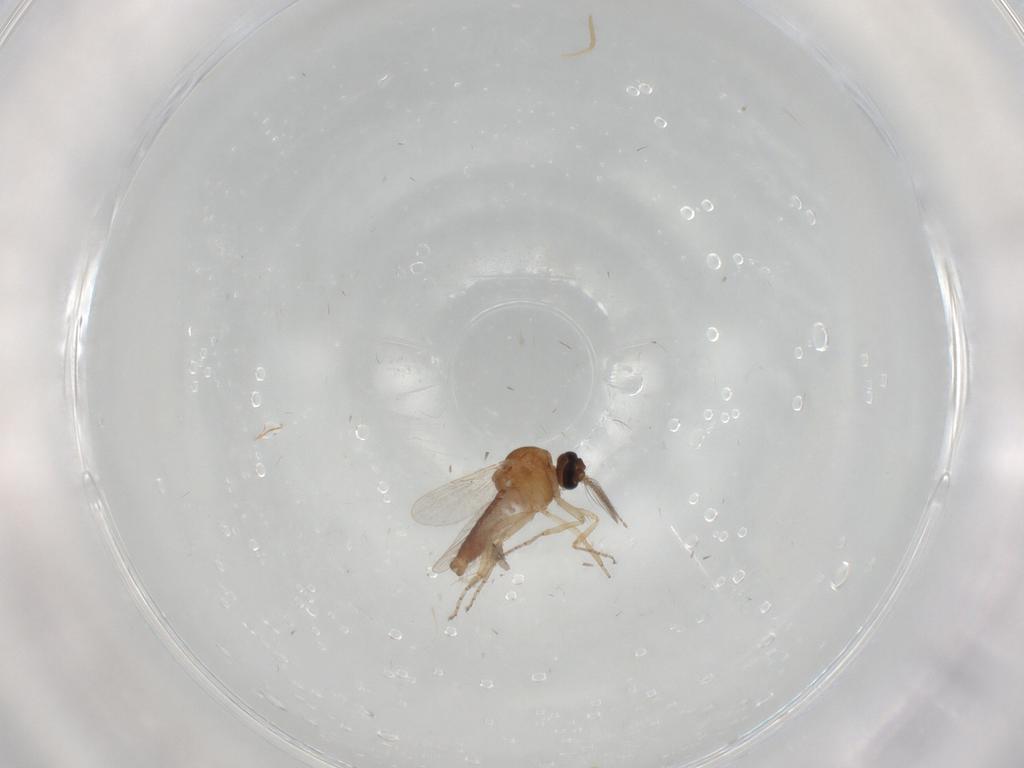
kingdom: Animalia
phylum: Arthropoda
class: Insecta
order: Diptera
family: Ceratopogonidae
